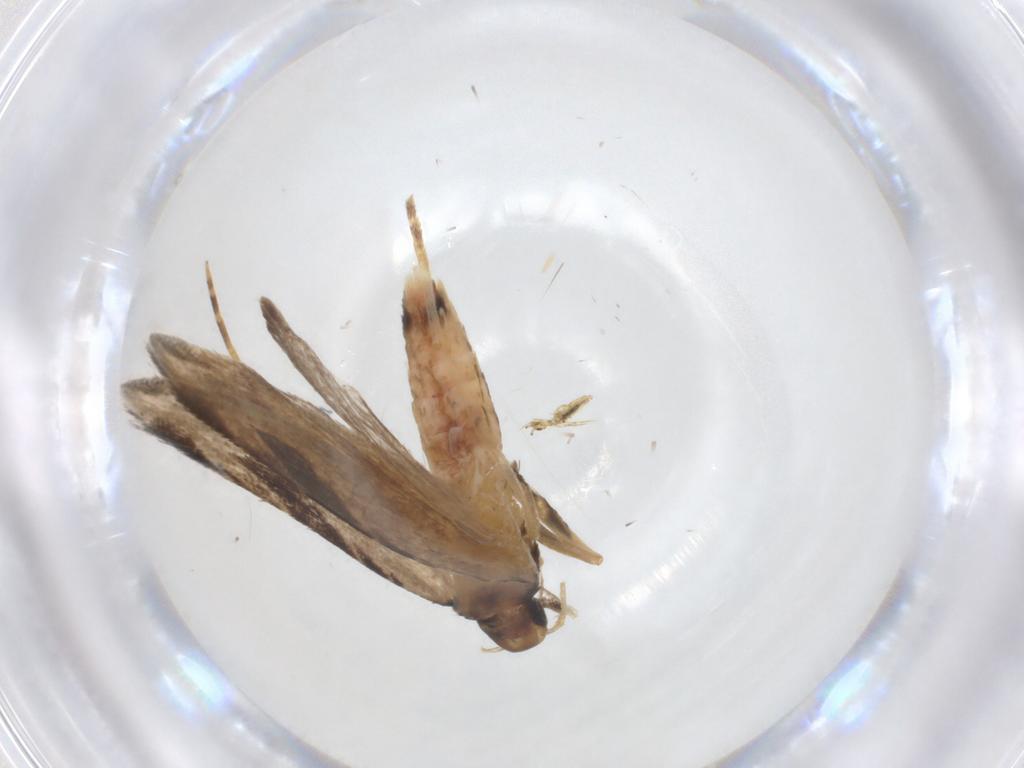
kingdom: Animalia
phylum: Arthropoda
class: Insecta
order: Lepidoptera
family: Gelechiidae
